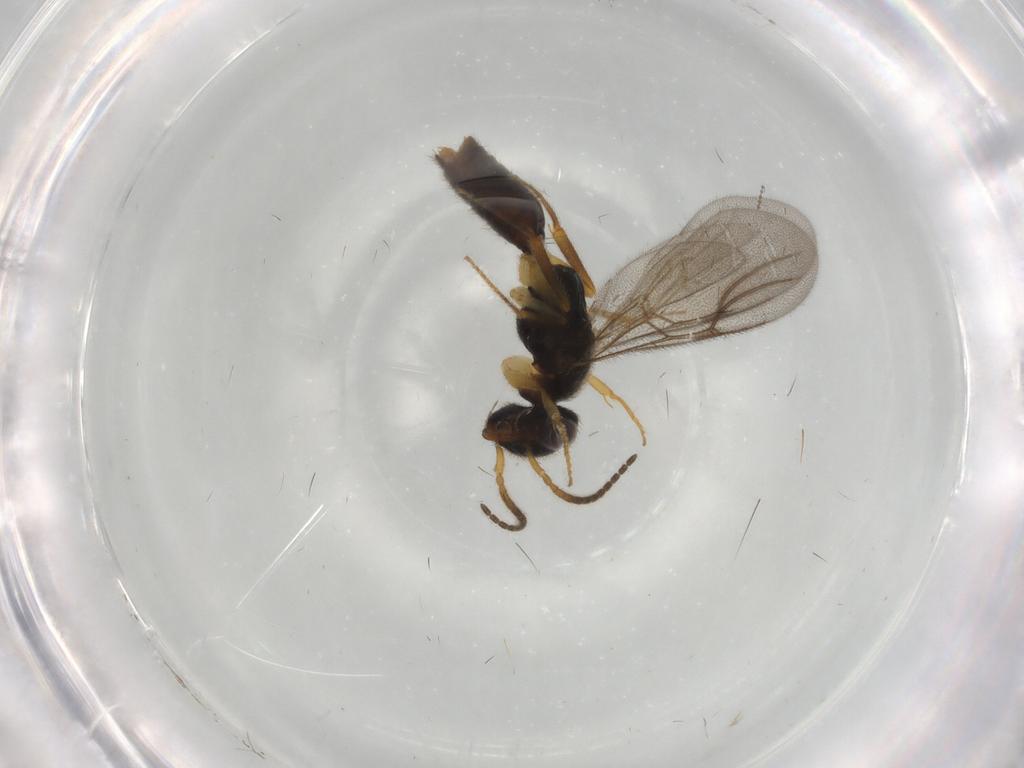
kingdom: Animalia
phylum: Arthropoda
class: Insecta
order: Hymenoptera
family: Bethylidae
